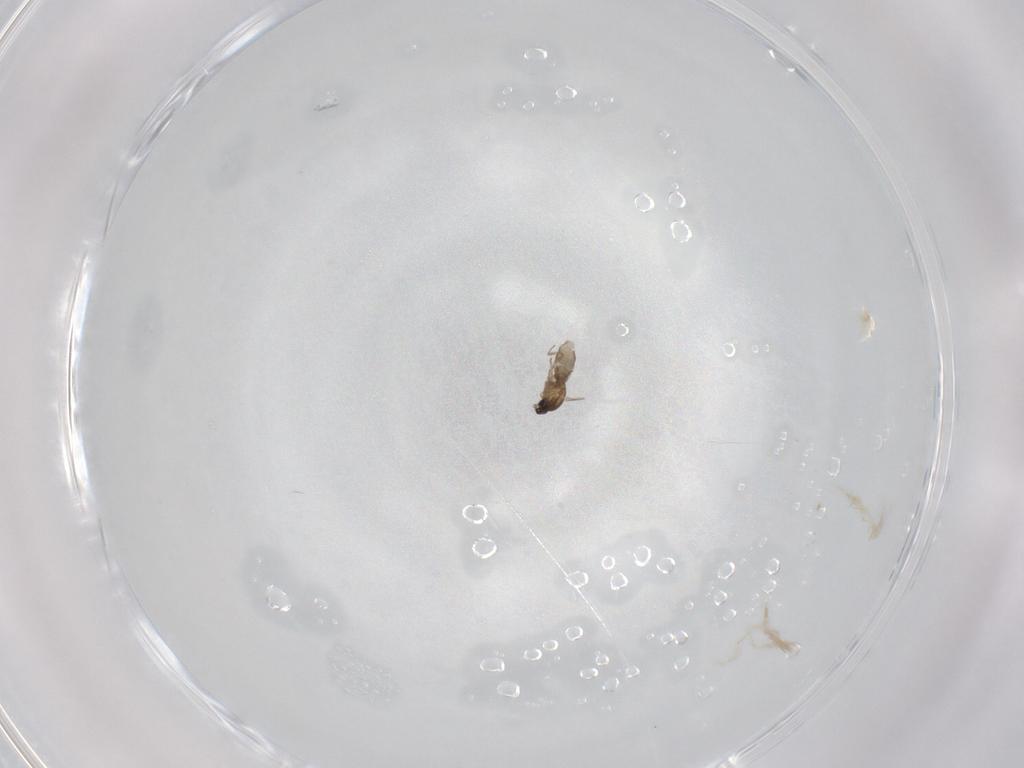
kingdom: Animalia
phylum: Arthropoda
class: Insecta
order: Diptera
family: Cecidomyiidae
